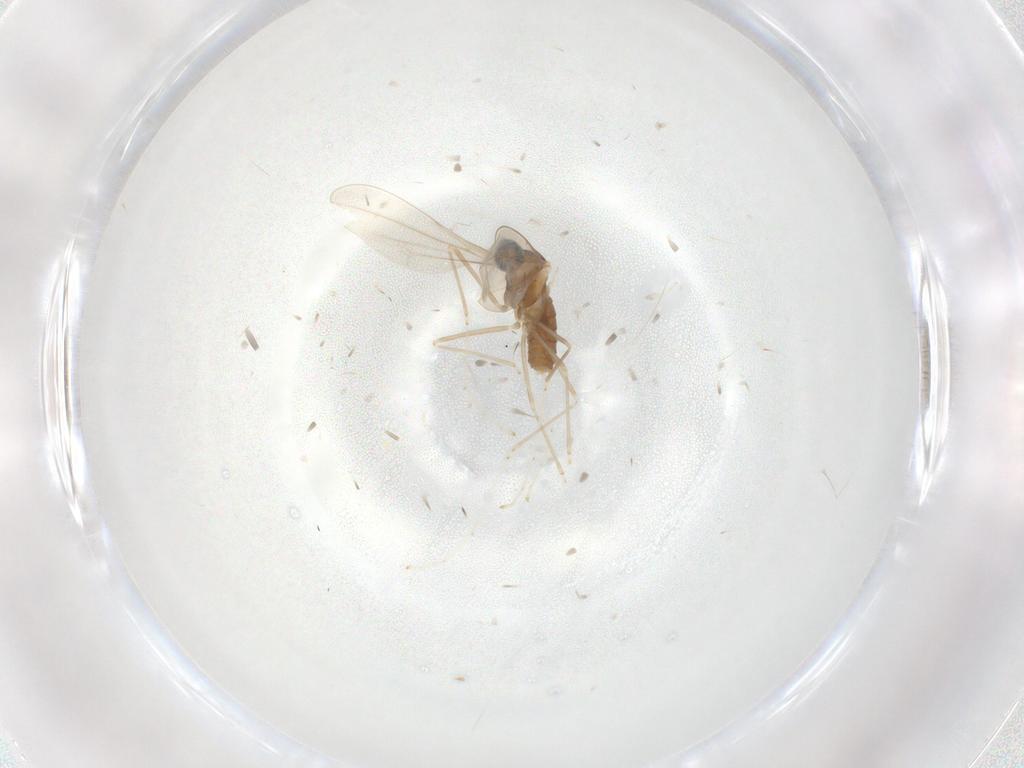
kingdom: Animalia
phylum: Arthropoda
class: Insecta
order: Diptera
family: Cecidomyiidae
